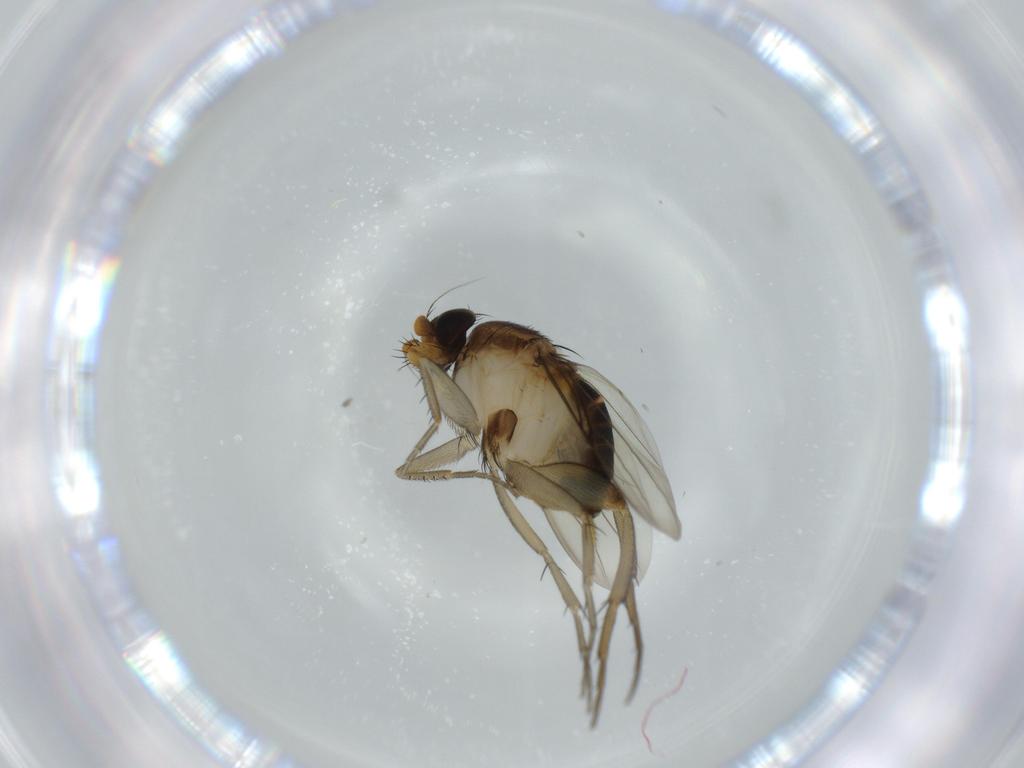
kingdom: Animalia
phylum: Arthropoda
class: Insecta
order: Diptera
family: Phoridae
